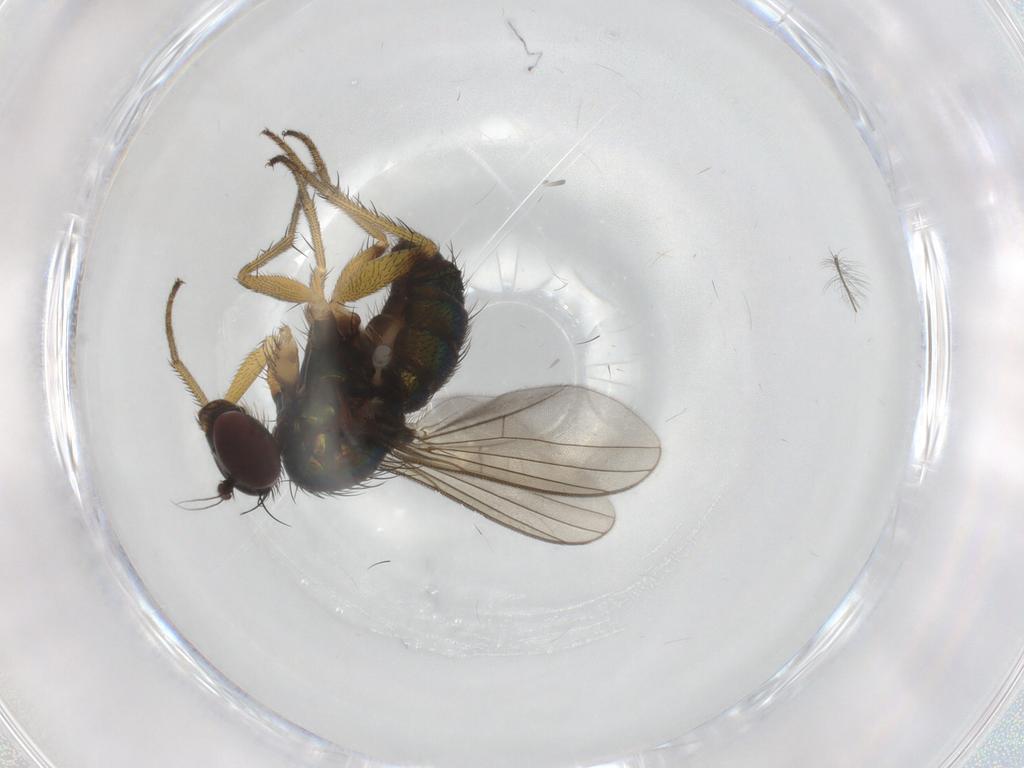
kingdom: Animalia
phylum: Arthropoda
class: Insecta
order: Diptera
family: Dolichopodidae
